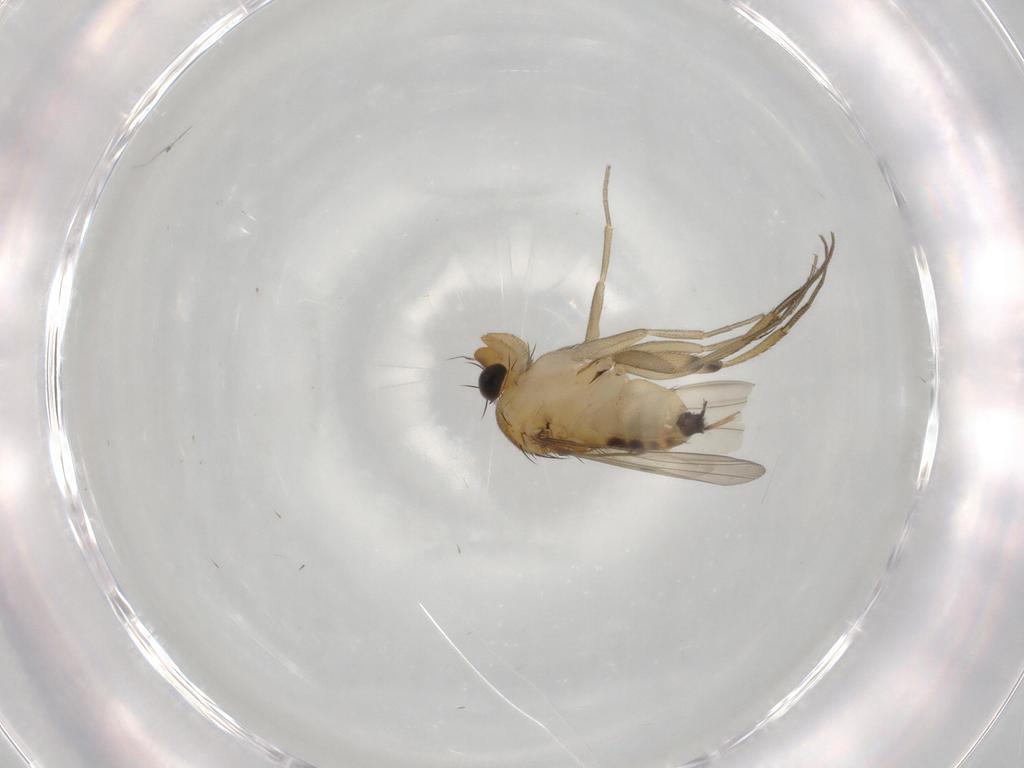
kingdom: Animalia
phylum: Arthropoda
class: Insecta
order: Diptera
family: Phoridae
